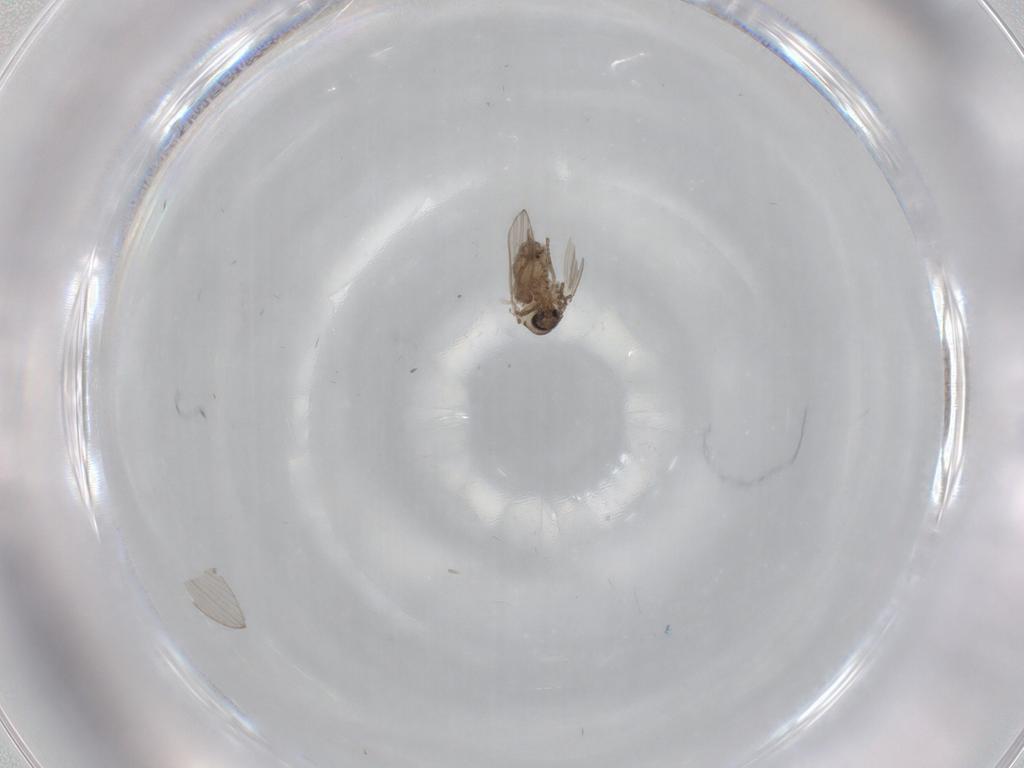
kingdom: Animalia
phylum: Arthropoda
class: Insecta
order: Diptera
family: Psychodidae
